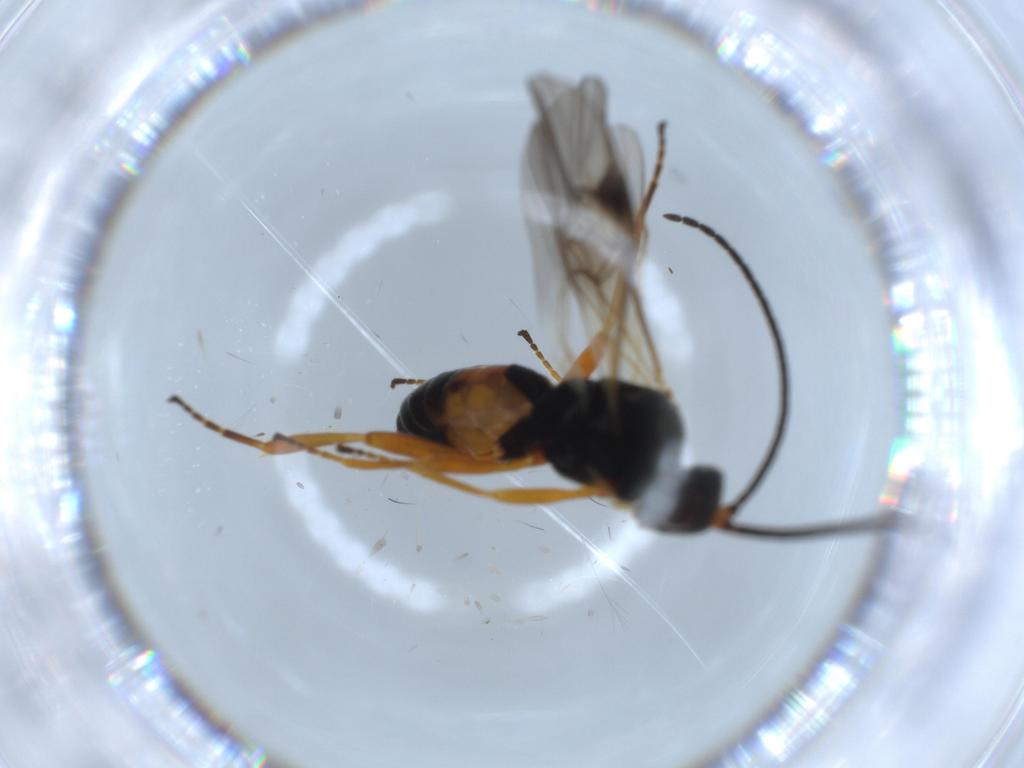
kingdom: Animalia
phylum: Arthropoda
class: Insecta
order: Hymenoptera
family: Braconidae
